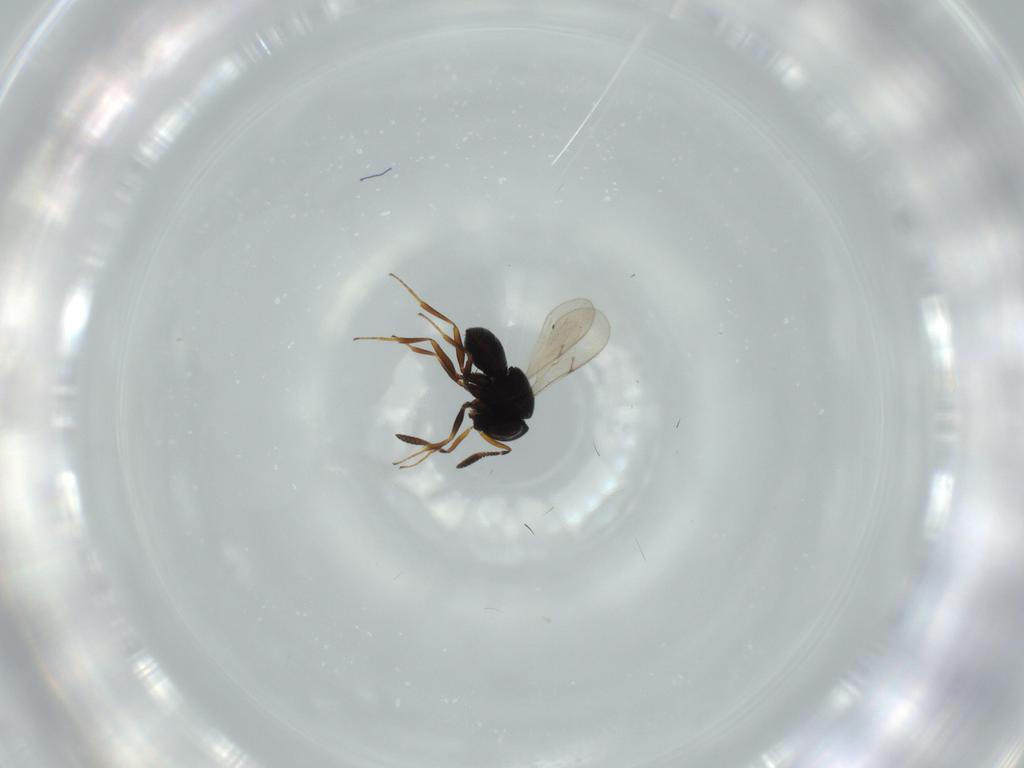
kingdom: Animalia
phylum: Arthropoda
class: Insecta
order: Hymenoptera
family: Scelionidae
